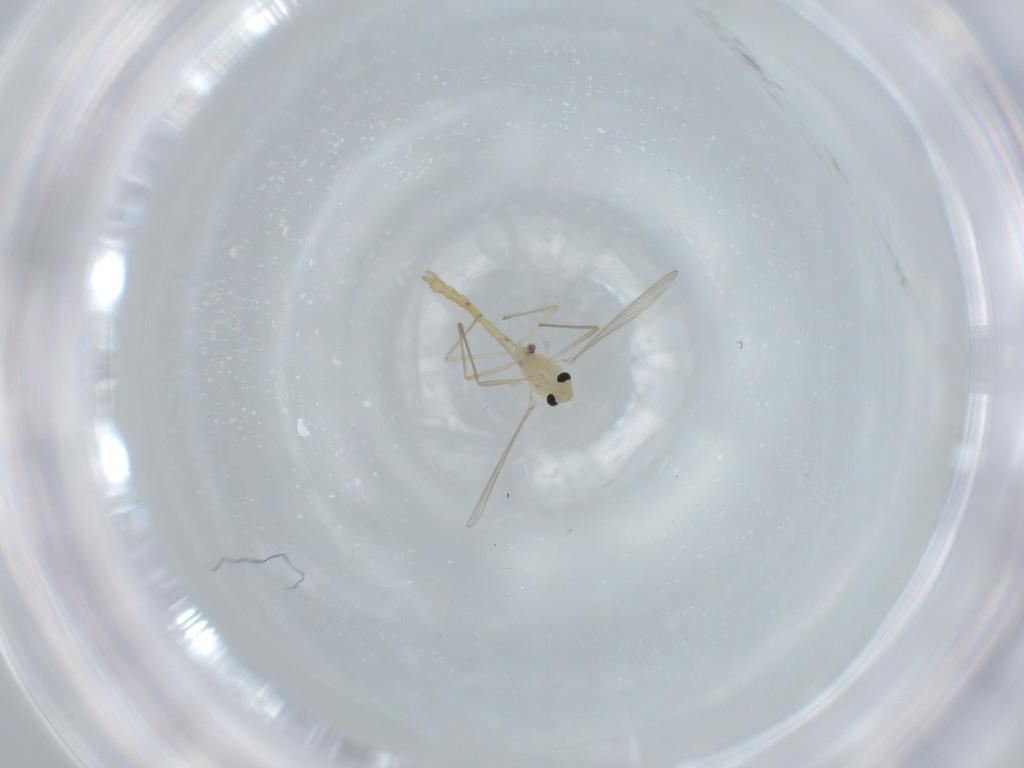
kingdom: Animalia
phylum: Arthropoda
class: Insecta
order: Diptera
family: Chironomidae
